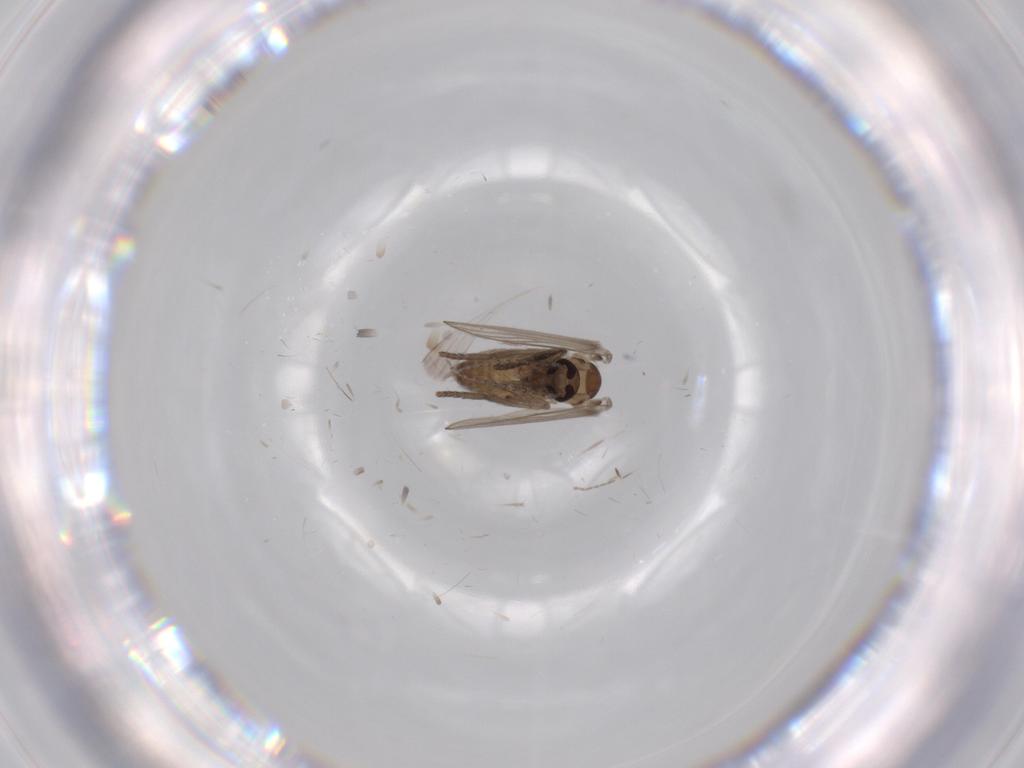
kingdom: Animalia
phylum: Arthropoda
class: Insecta
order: Diptera
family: Psychodidae
